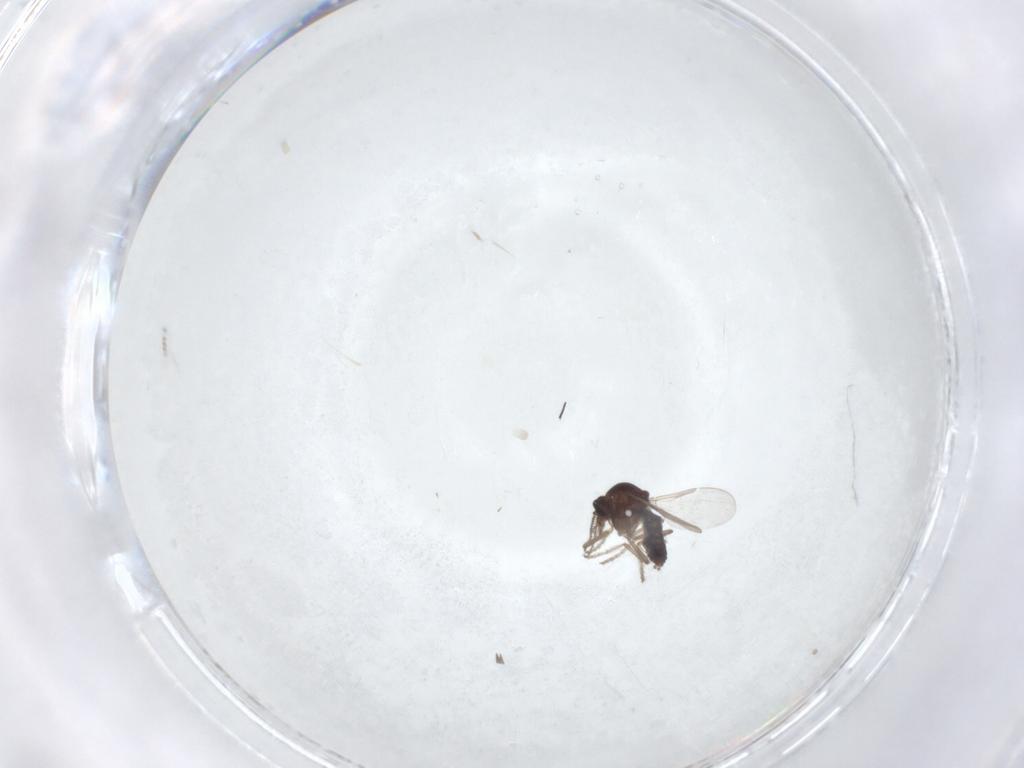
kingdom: Animalia
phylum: Arthropoda
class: Insecta
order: Diptera
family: Ceratopogonidae
